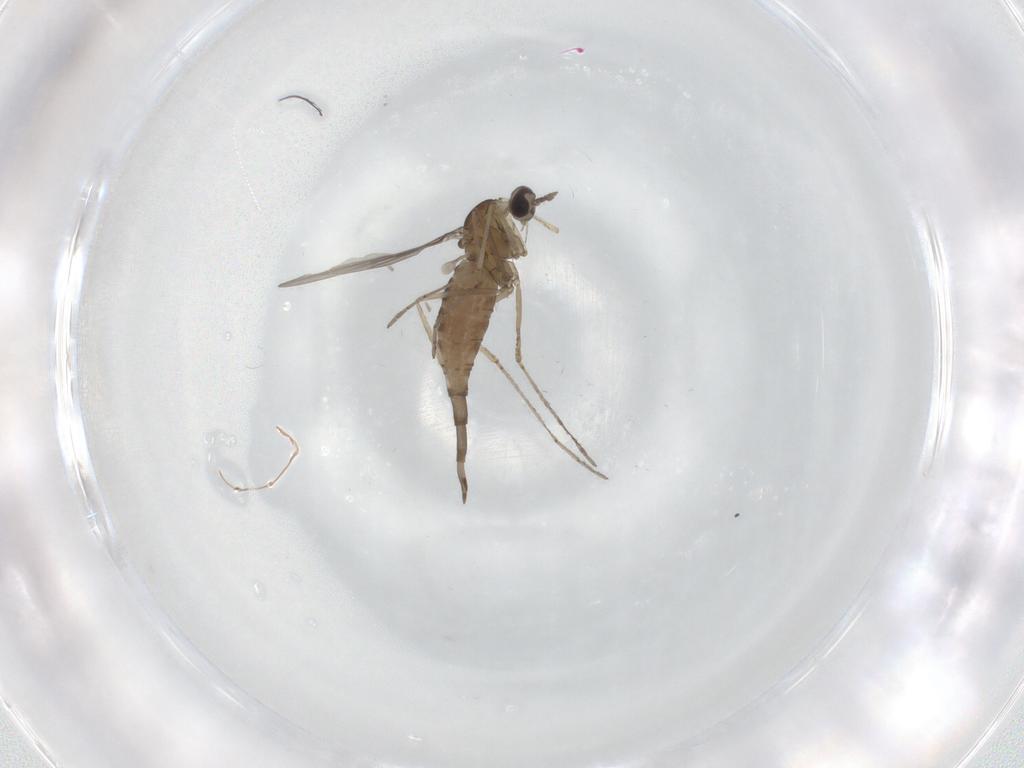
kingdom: Animalia
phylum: Arthropoda
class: Insecta
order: Diptera
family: Cecidomyiidae
